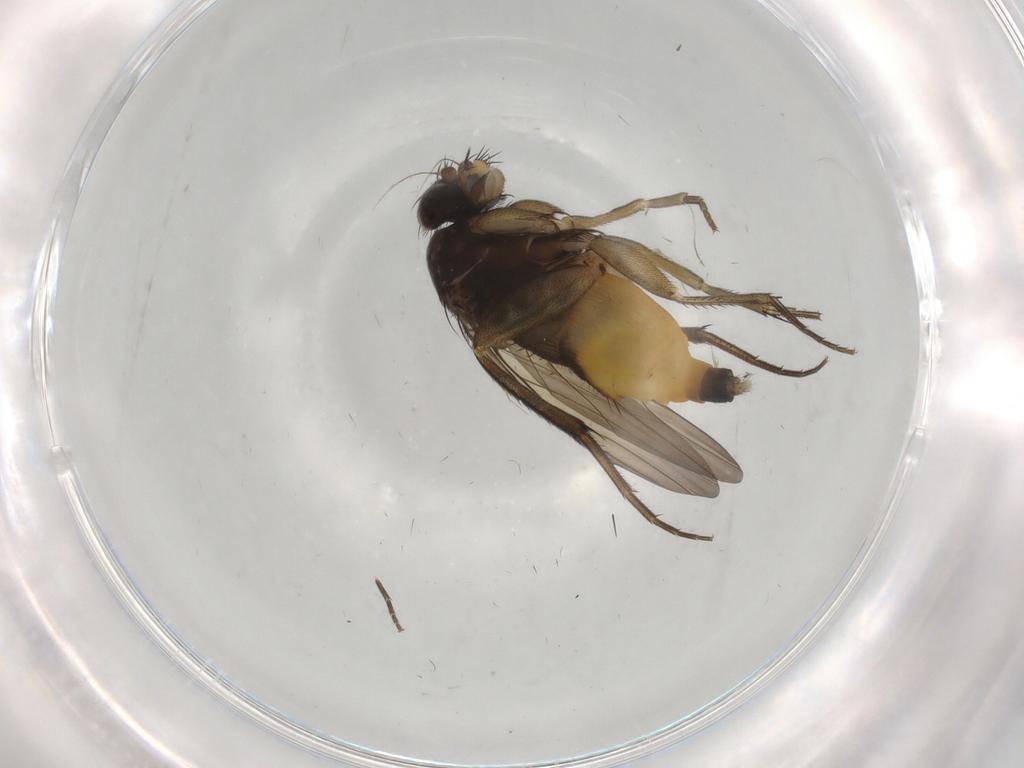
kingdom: Animalia
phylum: Arthropoda
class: Insecta
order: Diptera
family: Phoridae
